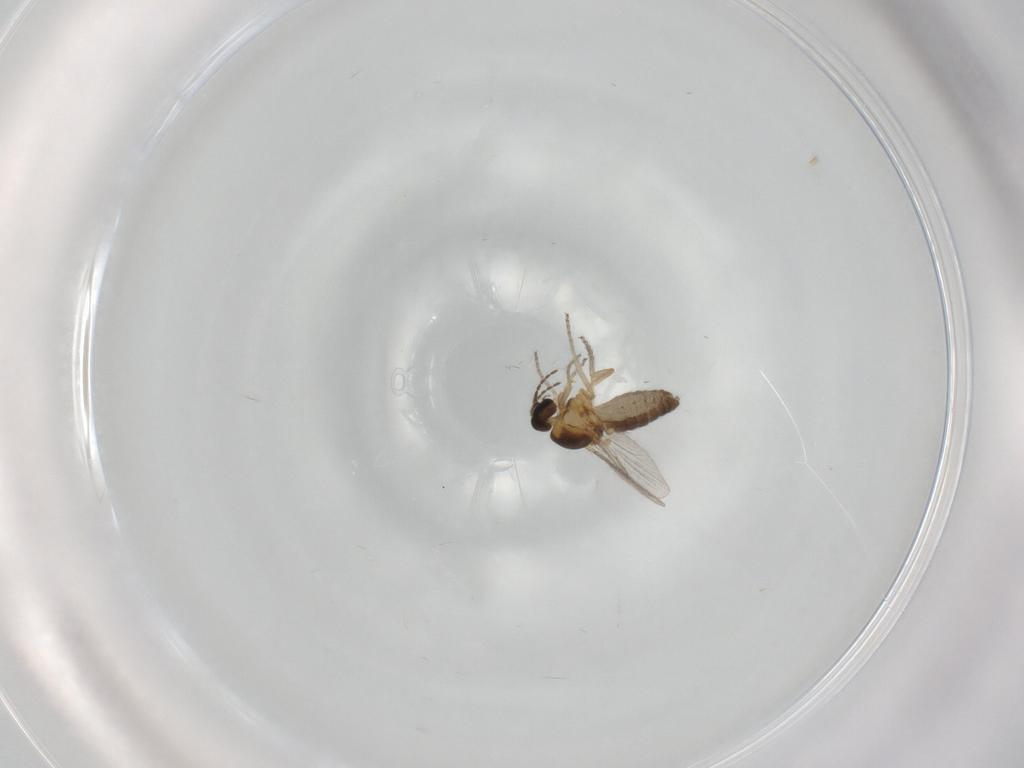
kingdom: Animalia
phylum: Arthropoda
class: Insecta
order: Diptera
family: Ceratopogonidae
